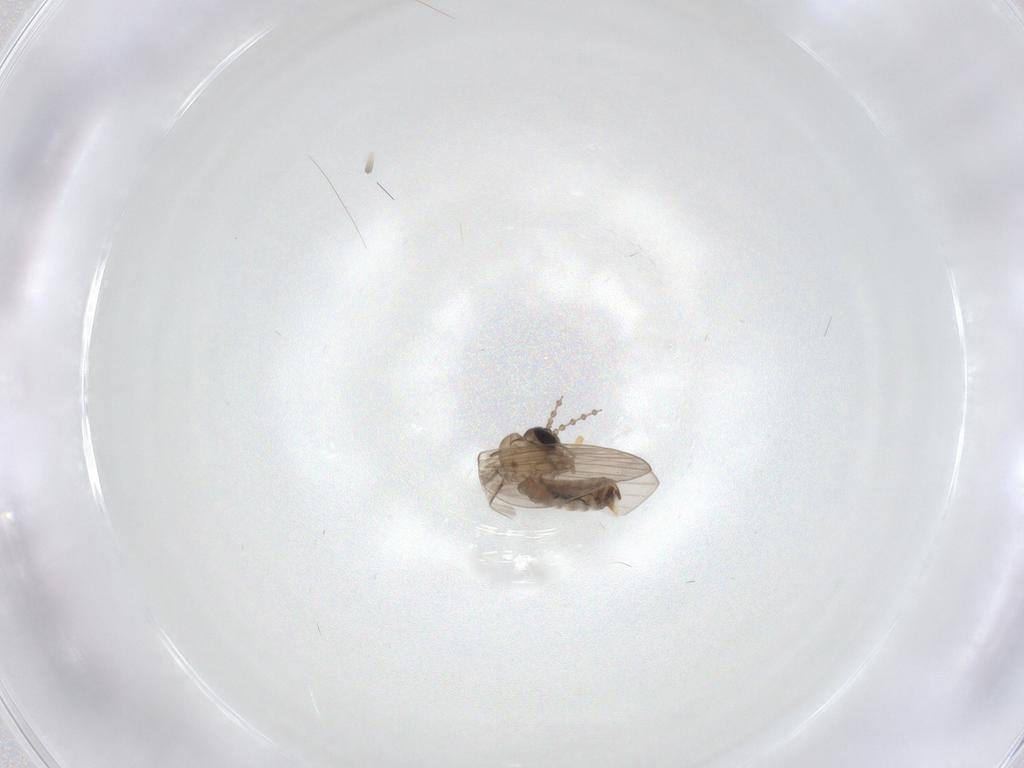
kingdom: Animalia
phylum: Arthropoda
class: Insecta
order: Diptera
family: Psychodidae
